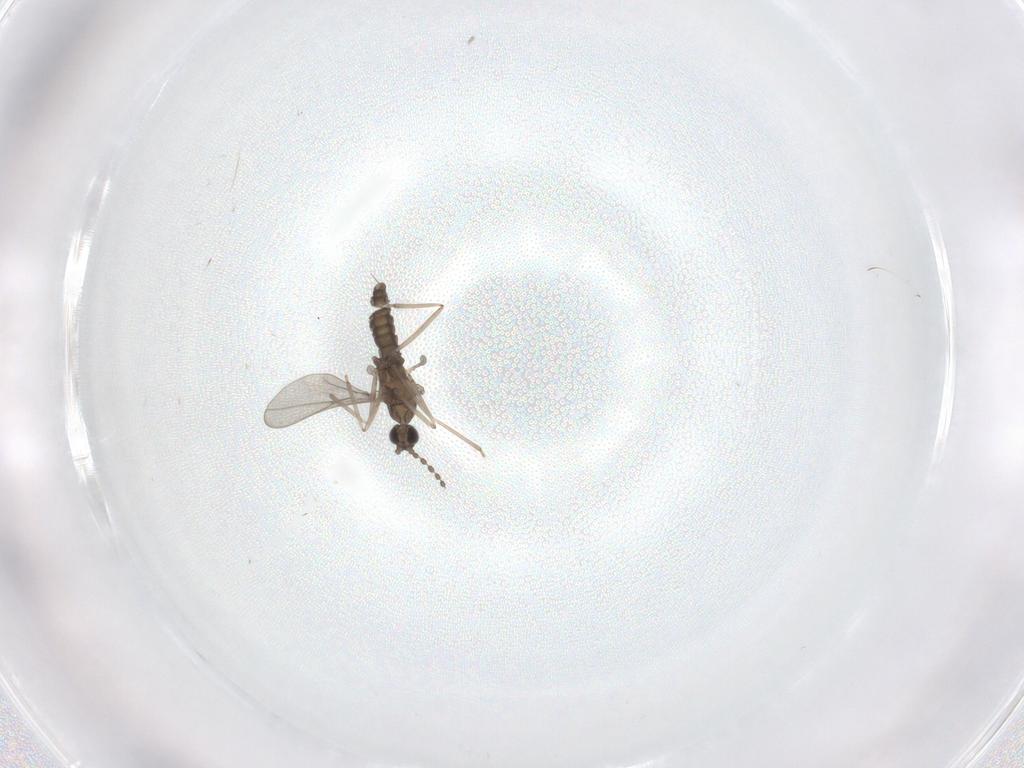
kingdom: Animalia
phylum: Arthropoda
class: Insecta
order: Diptera
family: Cecidomyiidae
